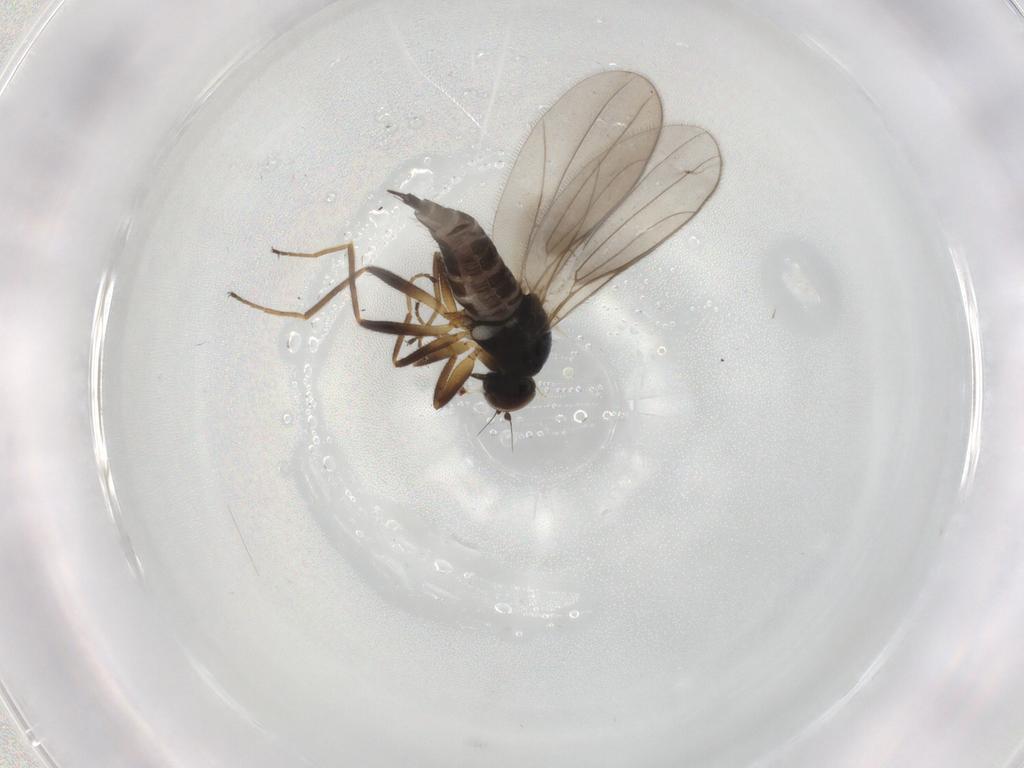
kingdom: Animalia
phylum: Arthropoda
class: Insecta
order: Diptera
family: Hybotidae
